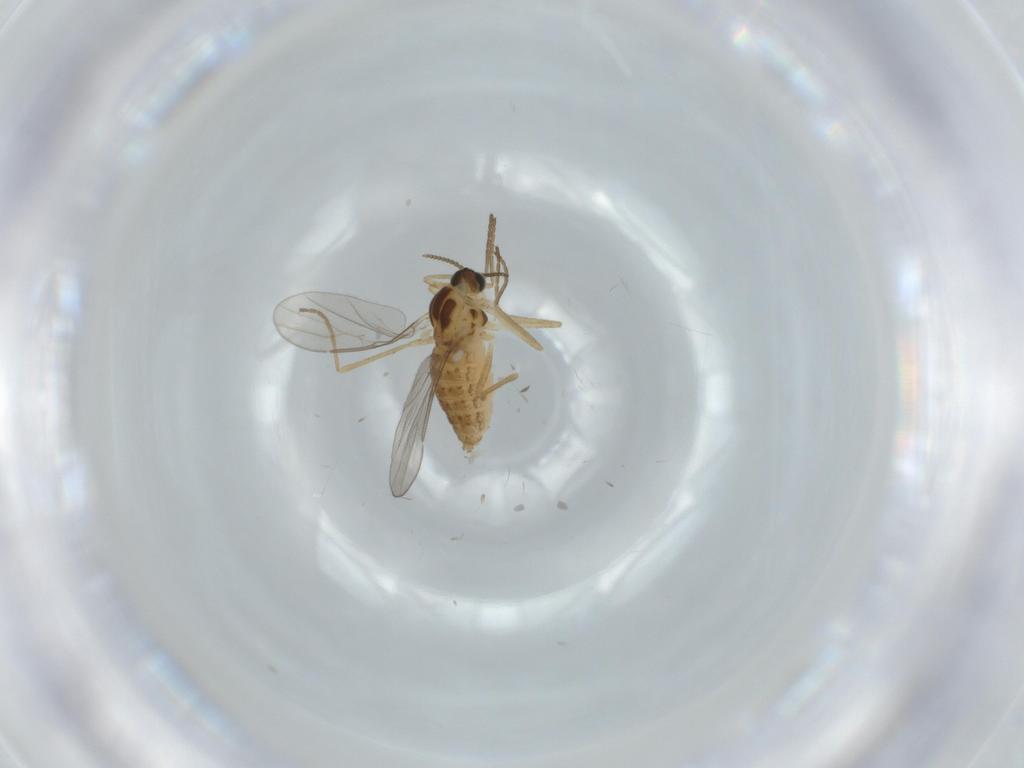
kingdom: Animalia
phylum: Arthropoda
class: Insecta
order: Diptera
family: Cecidomyiidae
